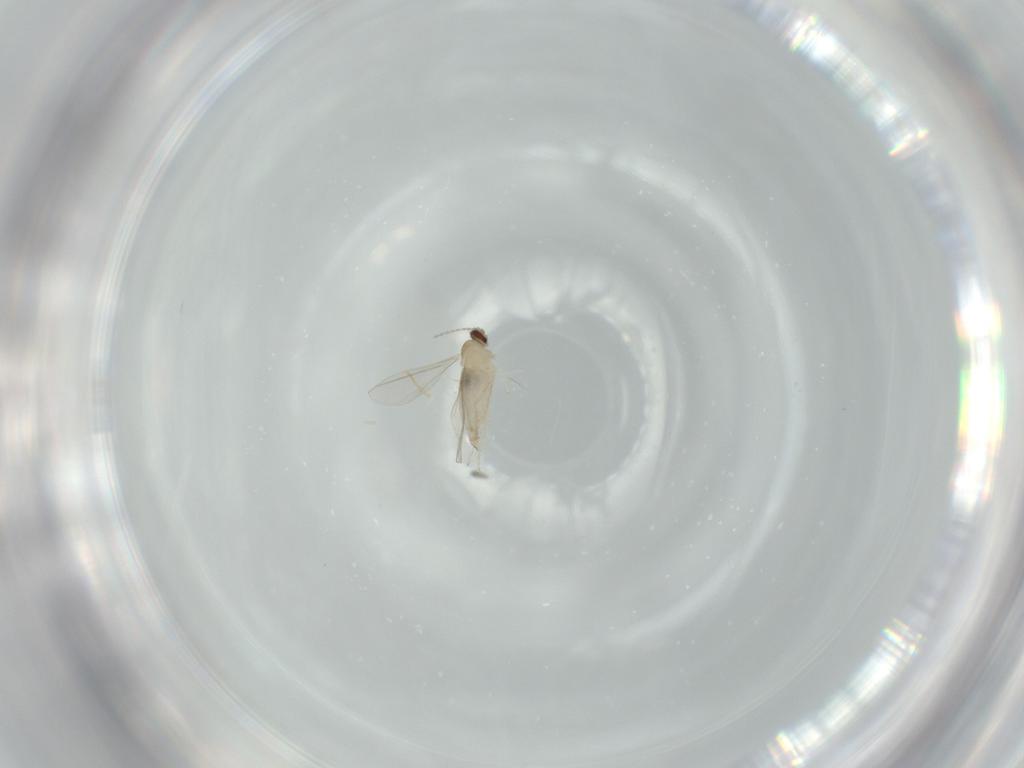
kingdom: Animalia
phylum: Arthropoda
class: Insecta
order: Diptera
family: Cecidomyiidae
